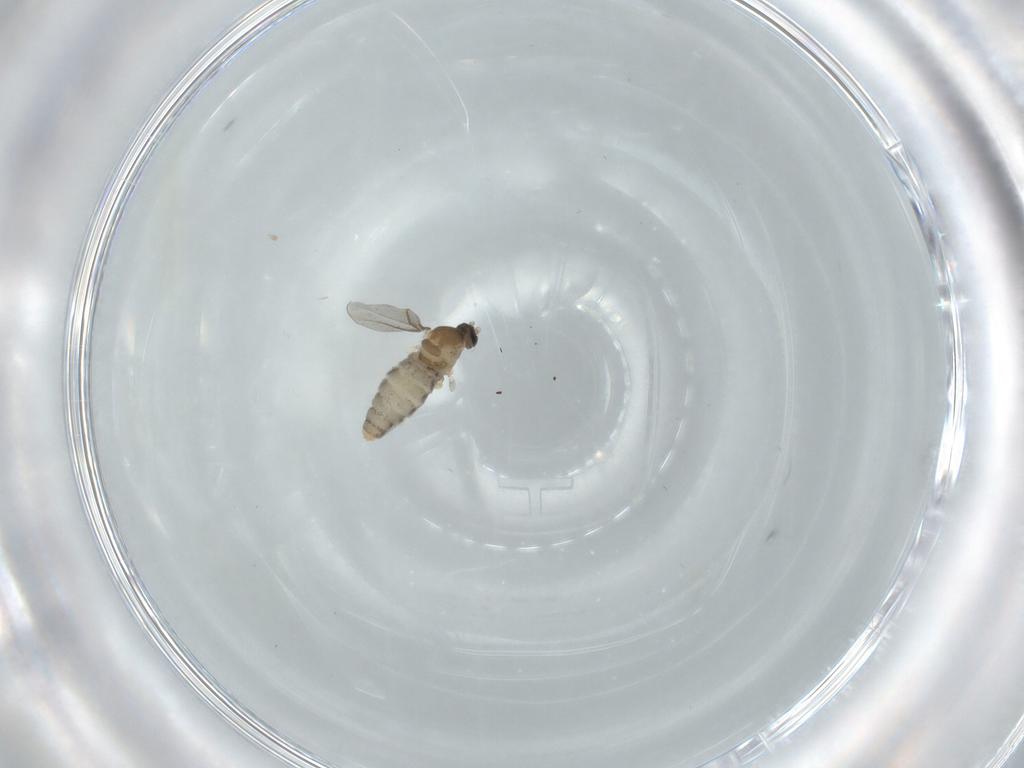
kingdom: Animalia
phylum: Arthropoda
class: Insecta
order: Diptera
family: Cecidomyiidae
